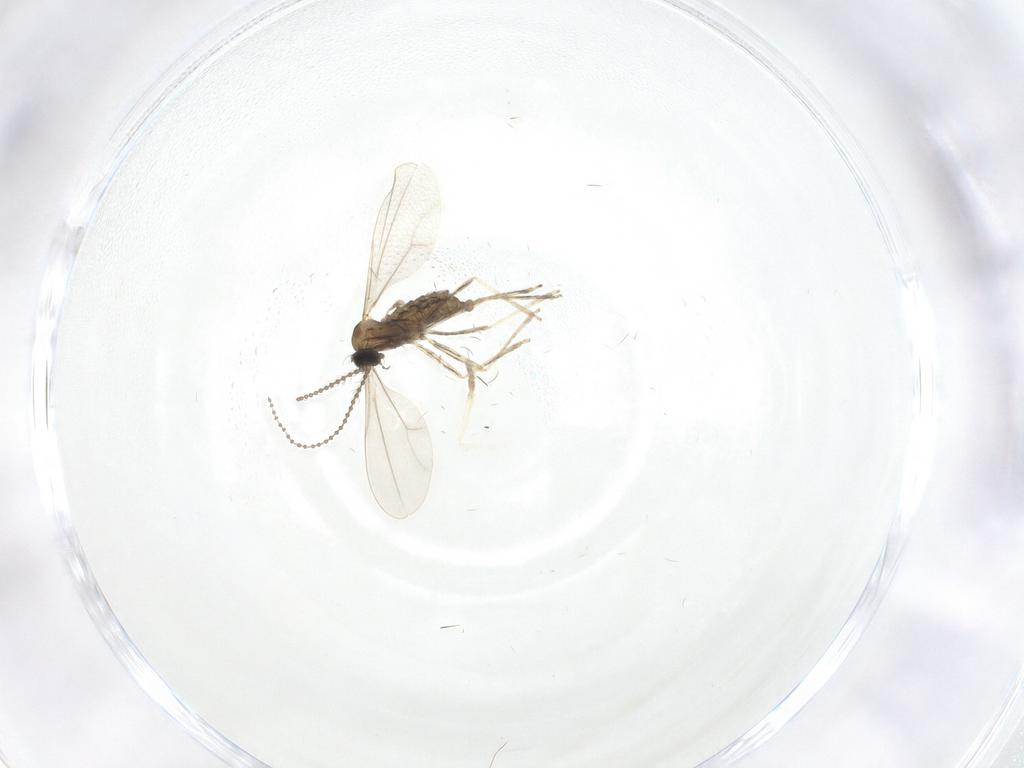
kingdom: Animalia
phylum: Arthropoda
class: Insecta
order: Diptera
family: Cecidomyiidae
